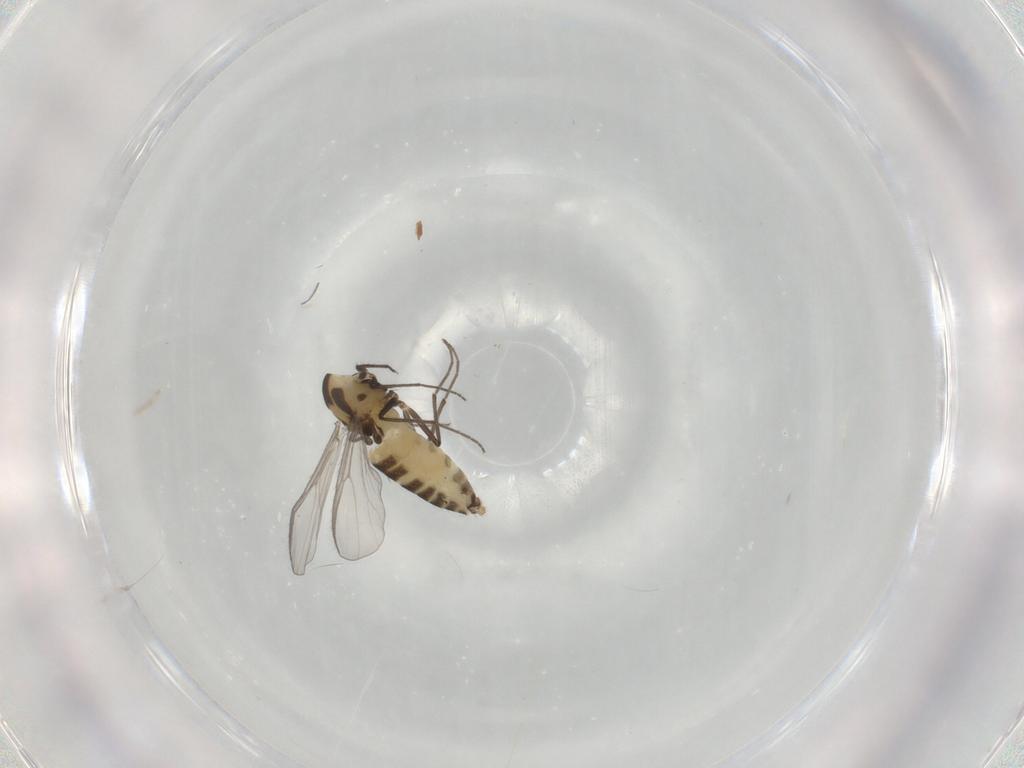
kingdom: Animalia
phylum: Arthropoda
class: Insecta
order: Diptera
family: Chironomidae
